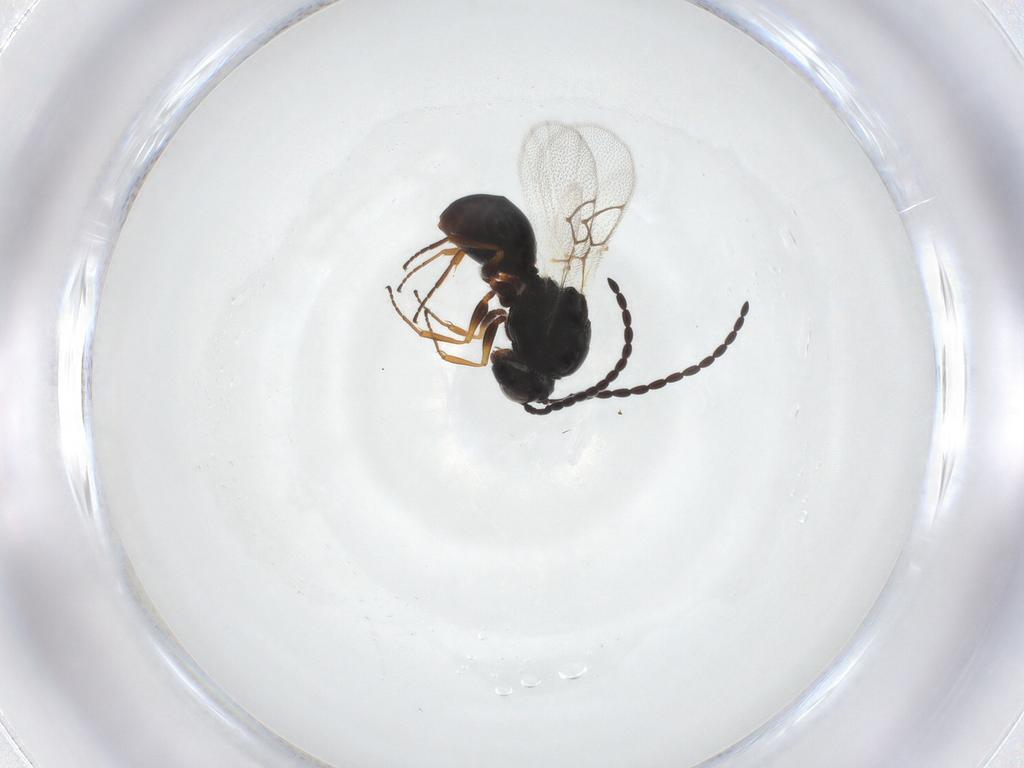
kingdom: Animalia
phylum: Arthropoda
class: Insecta
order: Hymenoptera
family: Figitidae
